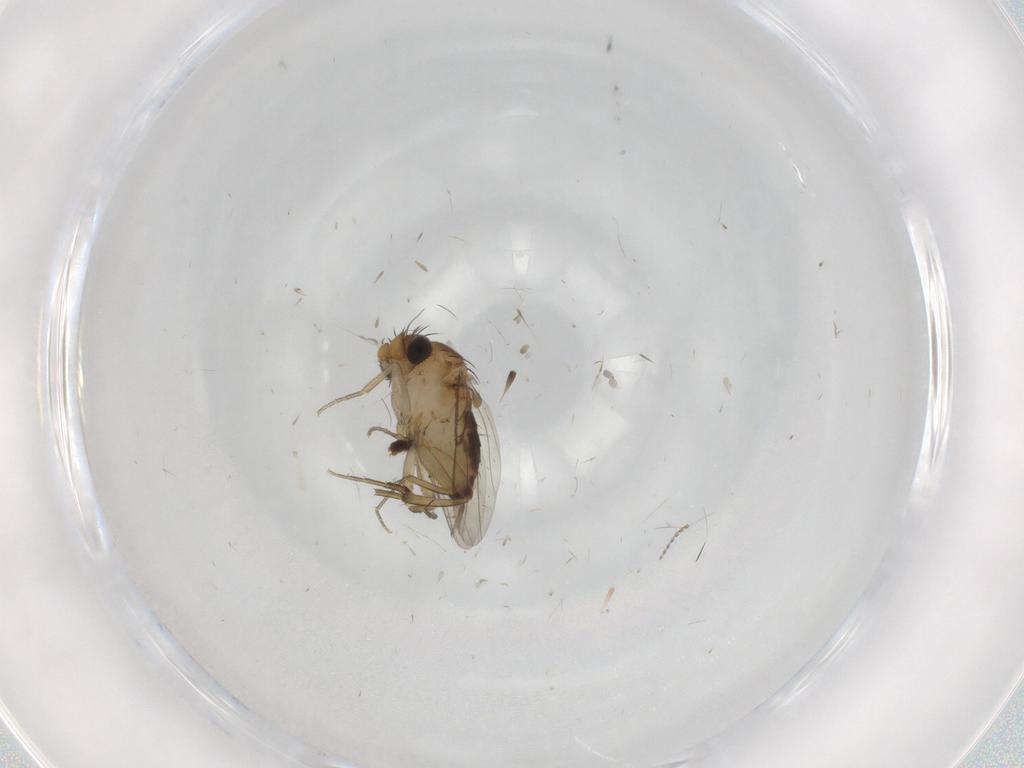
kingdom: Animalia
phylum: Arthropoda
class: Insecta
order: Diptera
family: Psychodidae
